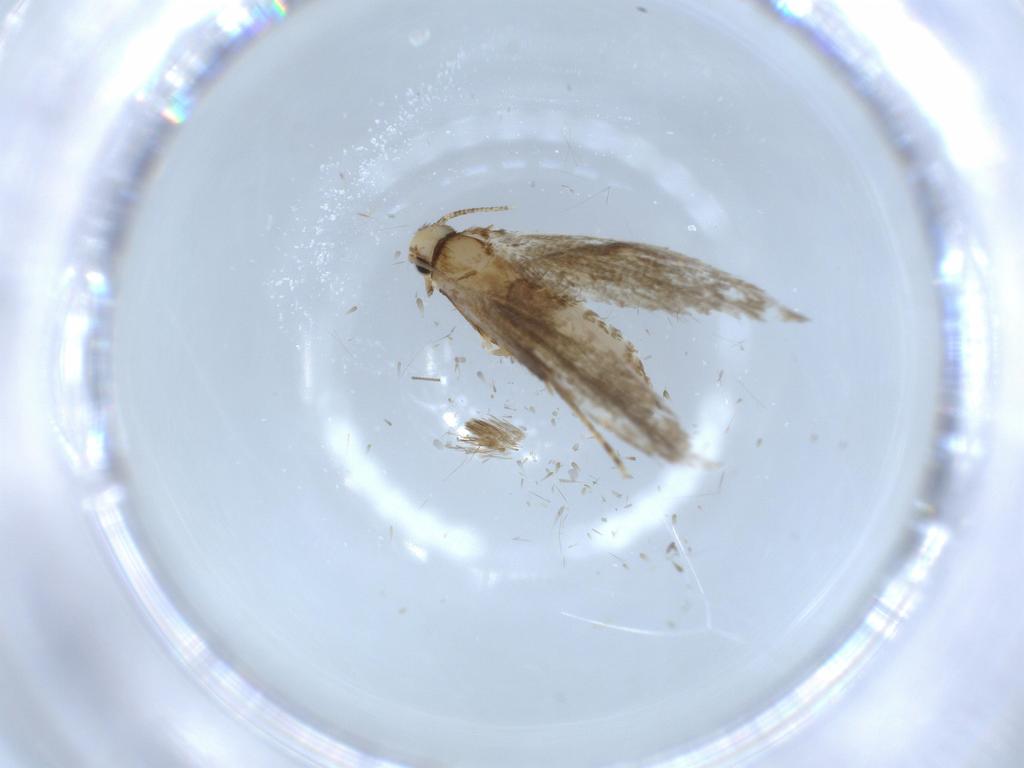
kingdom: Animalia
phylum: Arthropoda
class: Insecta
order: Lepidoptera
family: Tineidae
